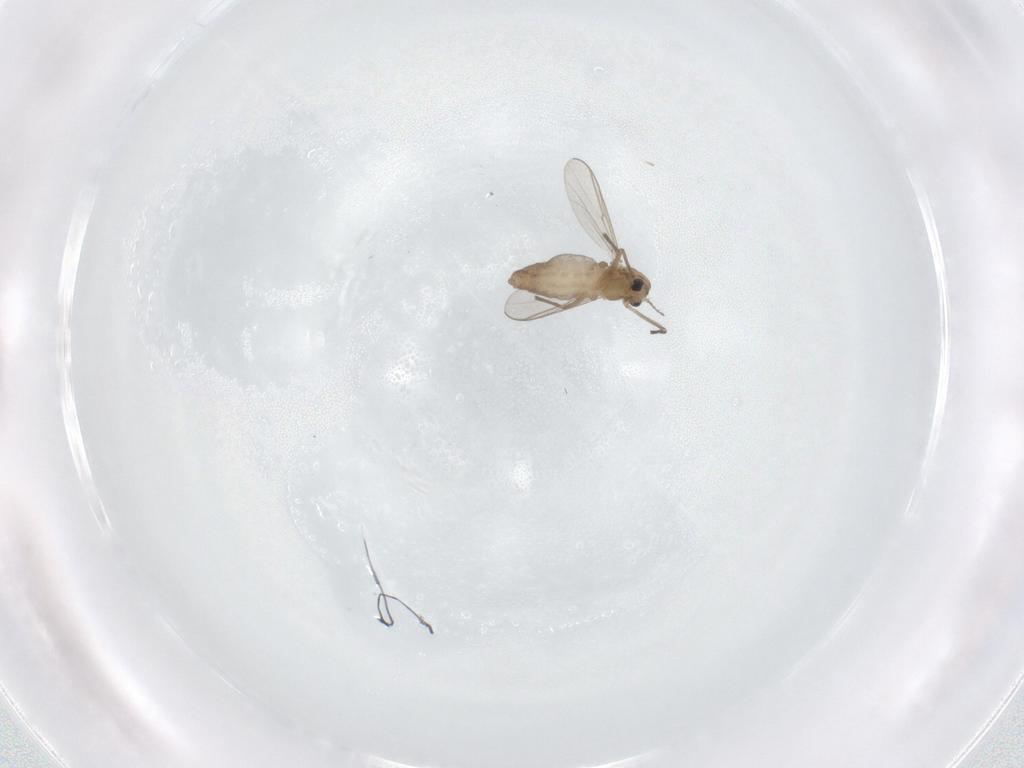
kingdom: Animalia
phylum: Arthropoda
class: Insecta
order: Diptera
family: Chironomidae
